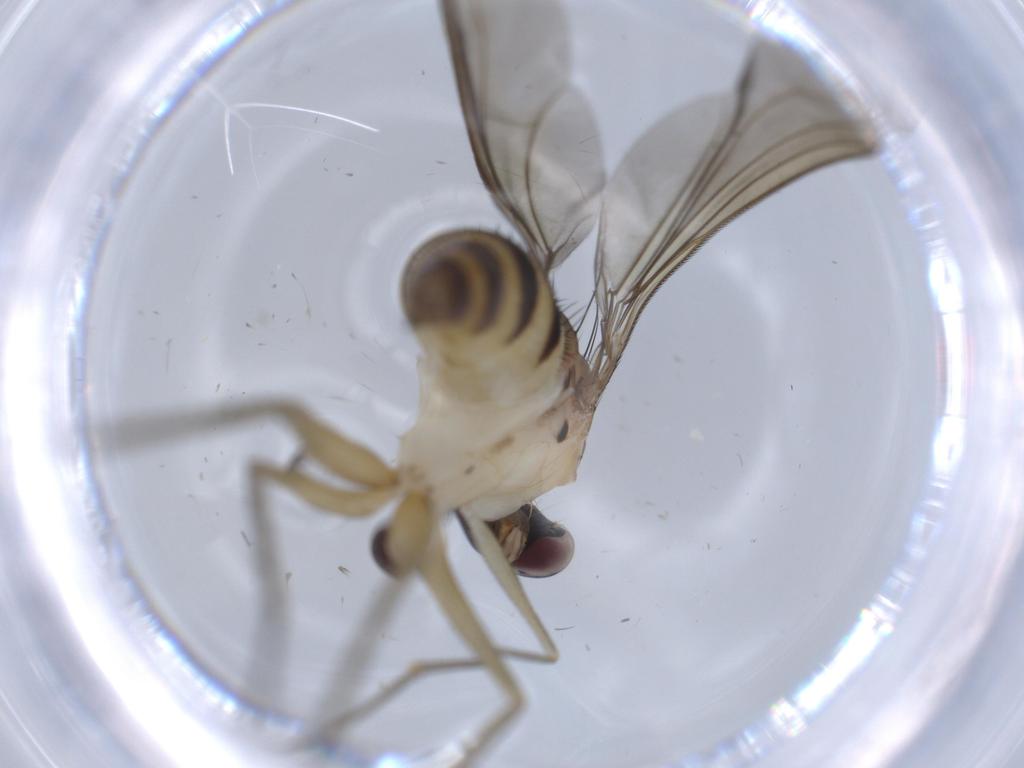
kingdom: Animalia
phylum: Arthropoda
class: Insecta
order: Diptera
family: Dolichopodidae
